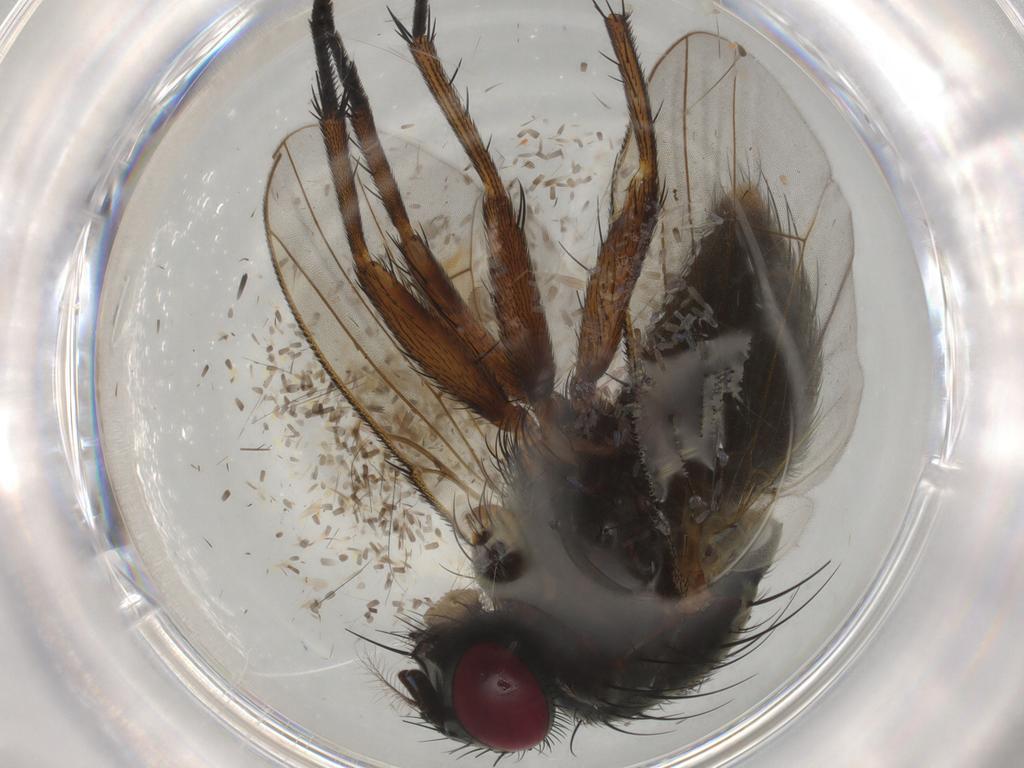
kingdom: Animalia
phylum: Arthropoda
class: Insecta
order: Diptera
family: Muscidae
